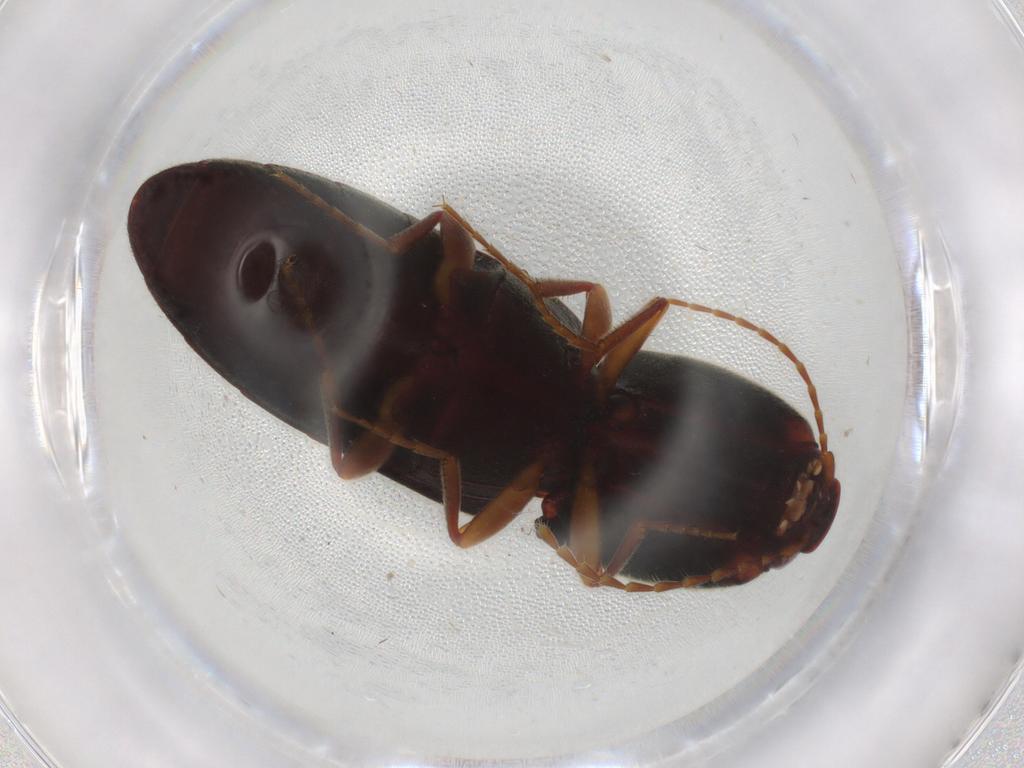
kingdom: Animalia
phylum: Arthropoda
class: Insecta
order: Coleoptera
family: Elateridae
